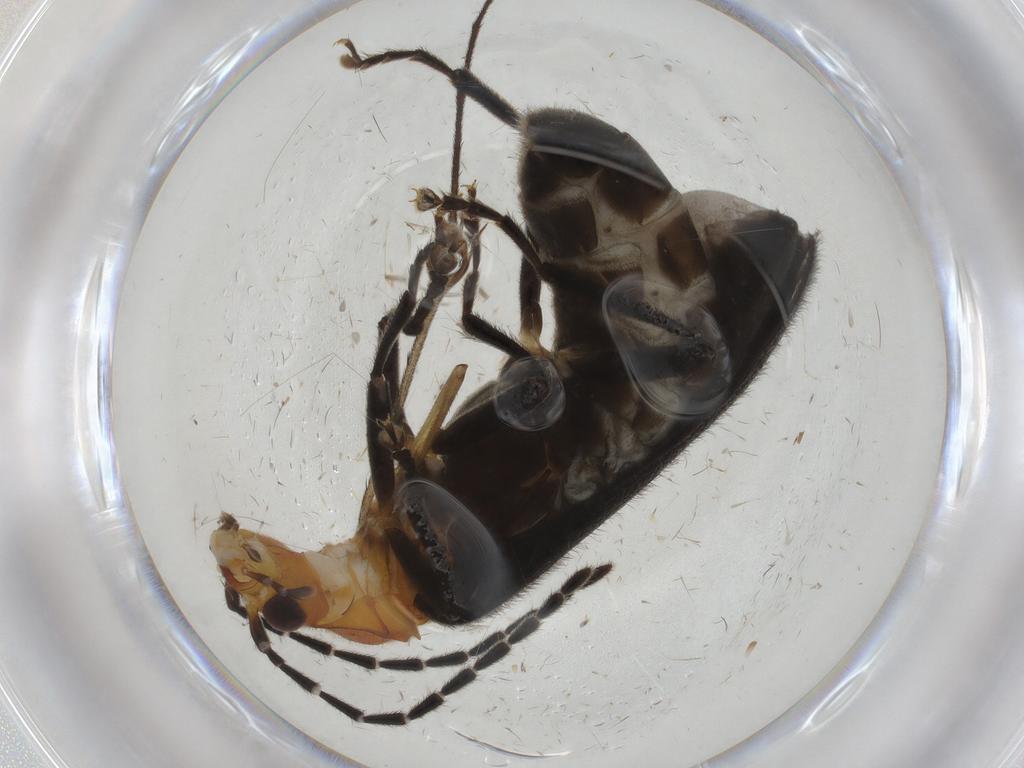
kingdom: Animalia
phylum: Arthropoda
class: Insecta
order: Coleoptera
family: Cantharidae
